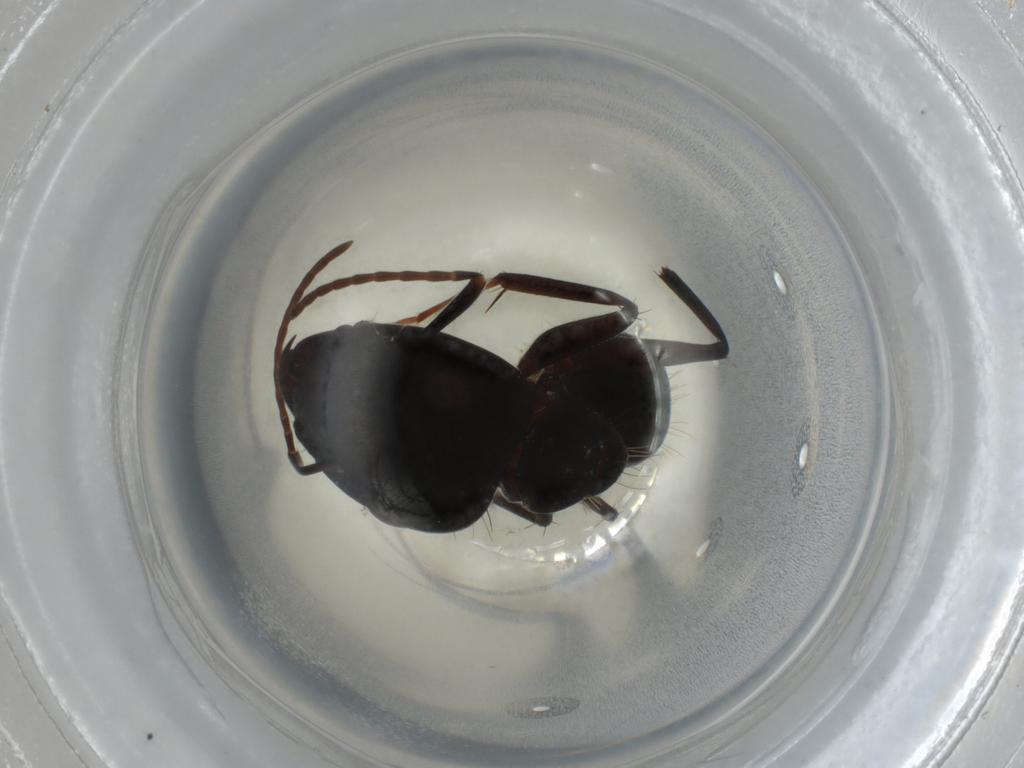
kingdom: Animalia
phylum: Arthropoda
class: Insecta
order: Hymenoptera
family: Formicidae
